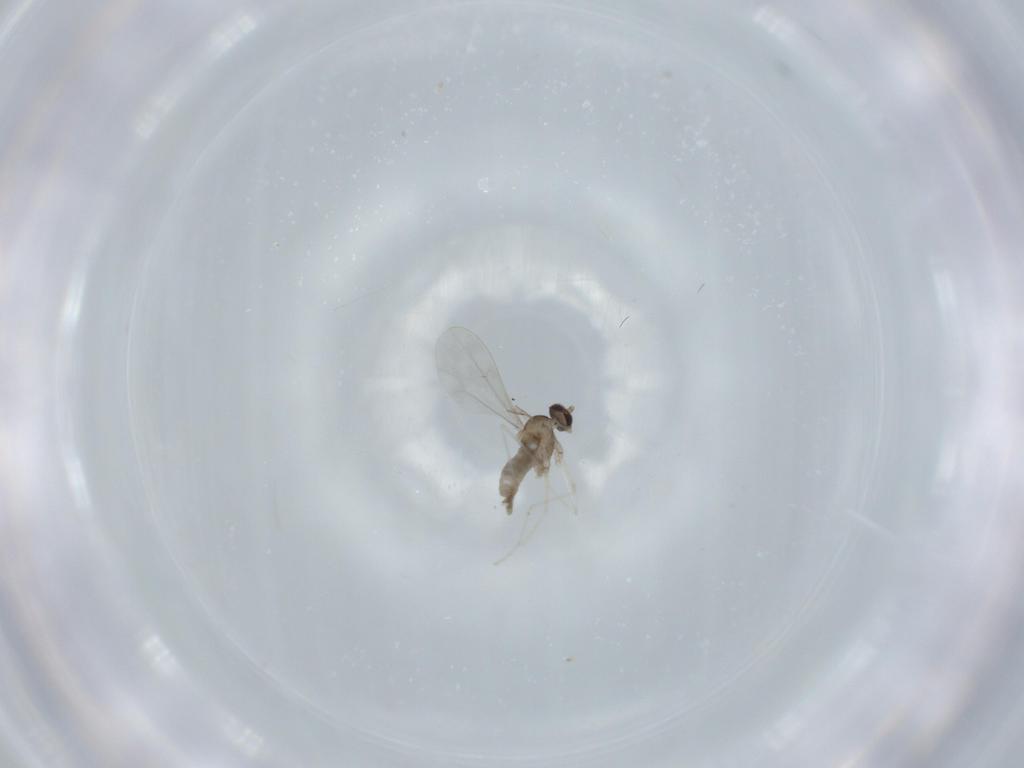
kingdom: Animalia
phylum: Arthropoda
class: Insecta
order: Diptera
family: Cecidomyiidae
